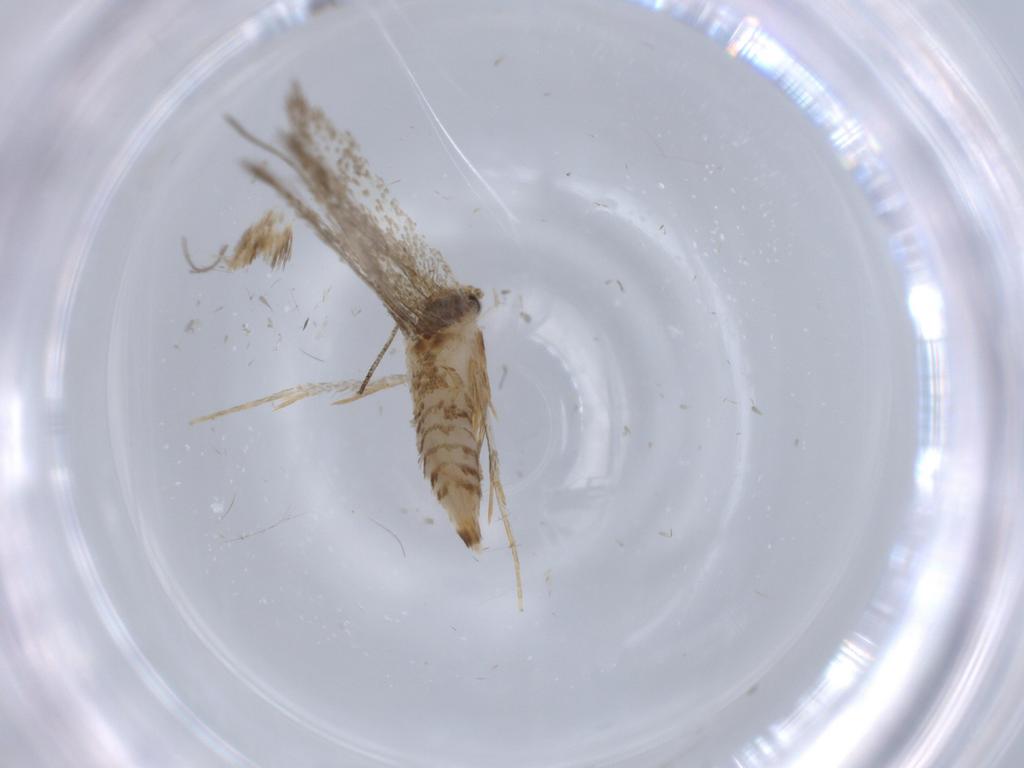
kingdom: Animalia
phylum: Arthropoda
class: Insecta
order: Lepidoptera
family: Tineidae
